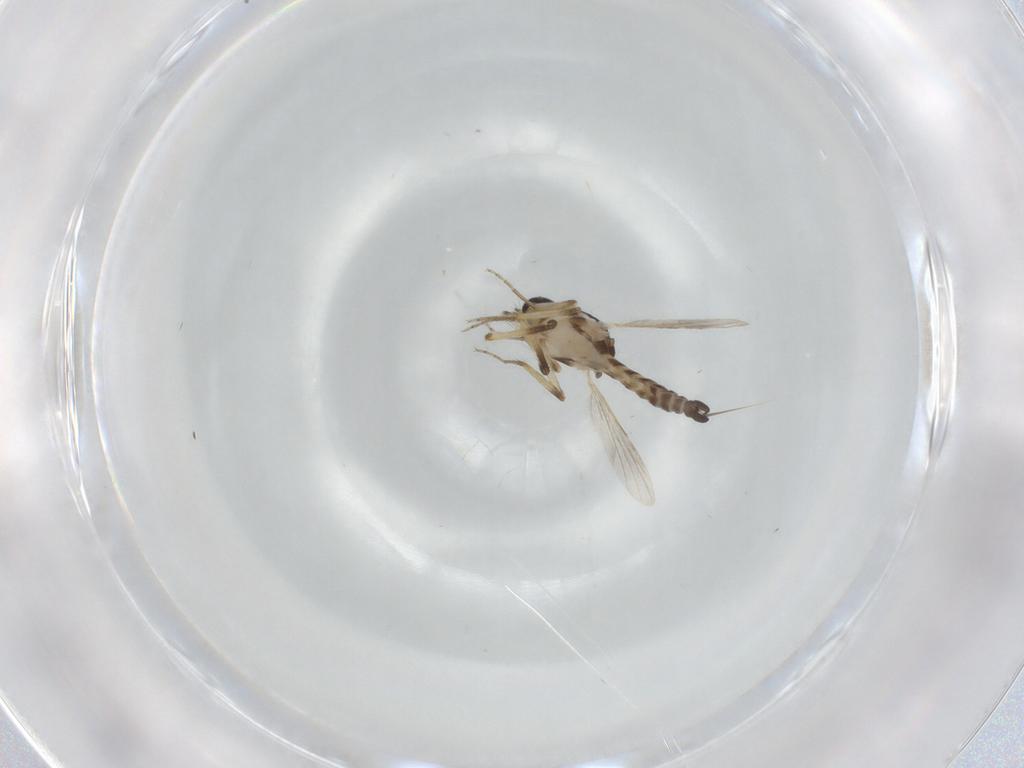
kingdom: Animalia
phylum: Arthropoda
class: Insecta
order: Diptera
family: Ceratopogonidae
